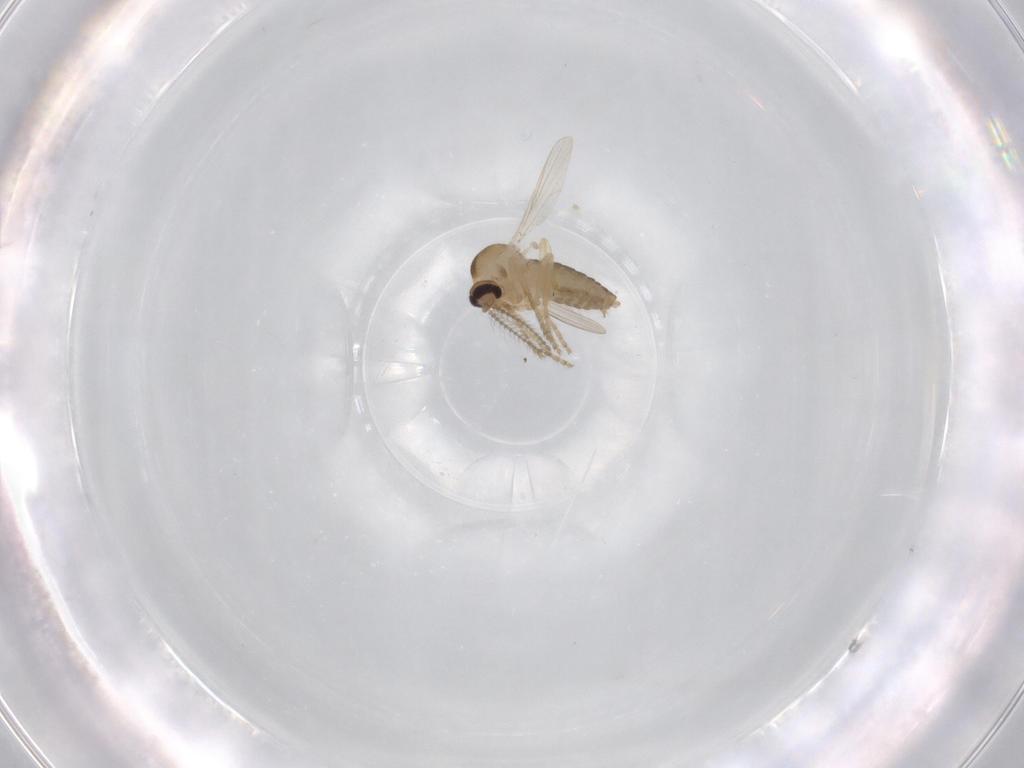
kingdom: Animalia
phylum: Arthropoda
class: Insecta
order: Diptera
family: Ceratopogonidae
